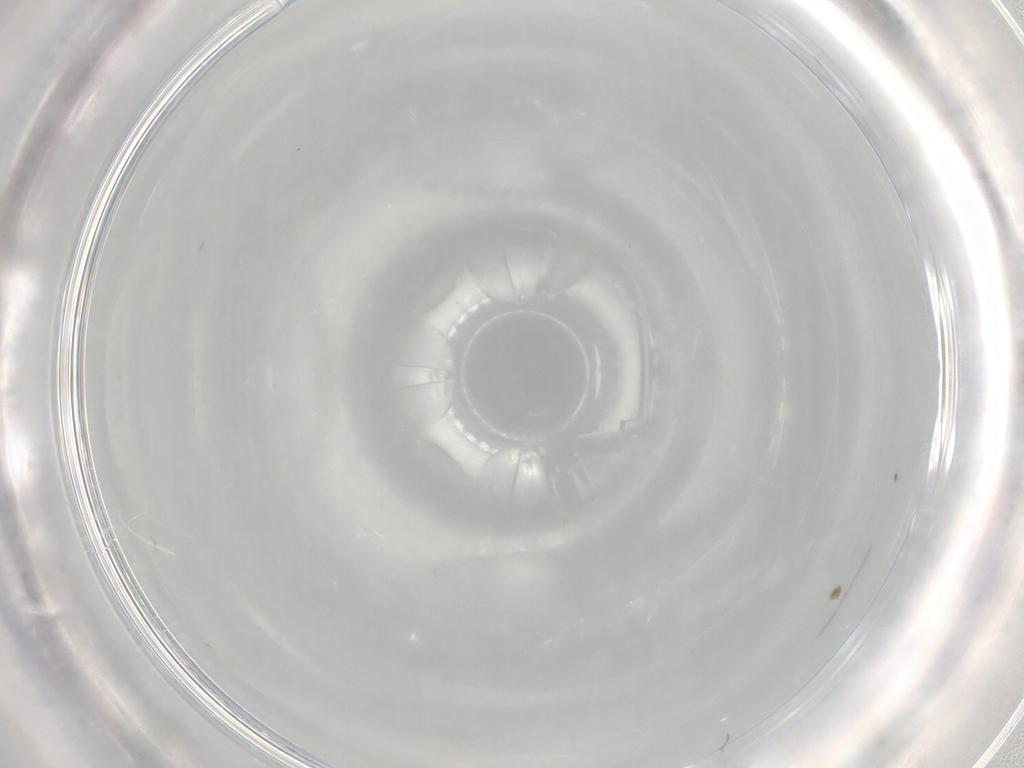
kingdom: Animalia
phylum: Arthropoda
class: Insecta
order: Diptera
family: Ceratopogonidae
